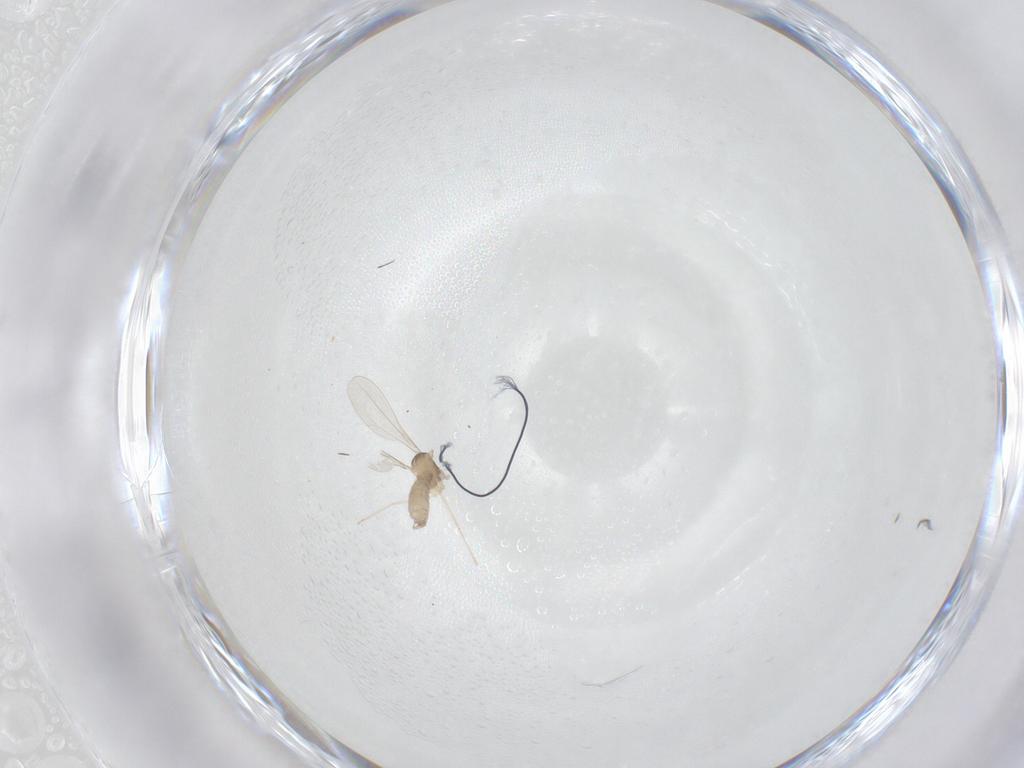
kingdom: Animalia
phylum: Arthropoda
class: Insecta
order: Diptera
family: Cecidomyiidae
